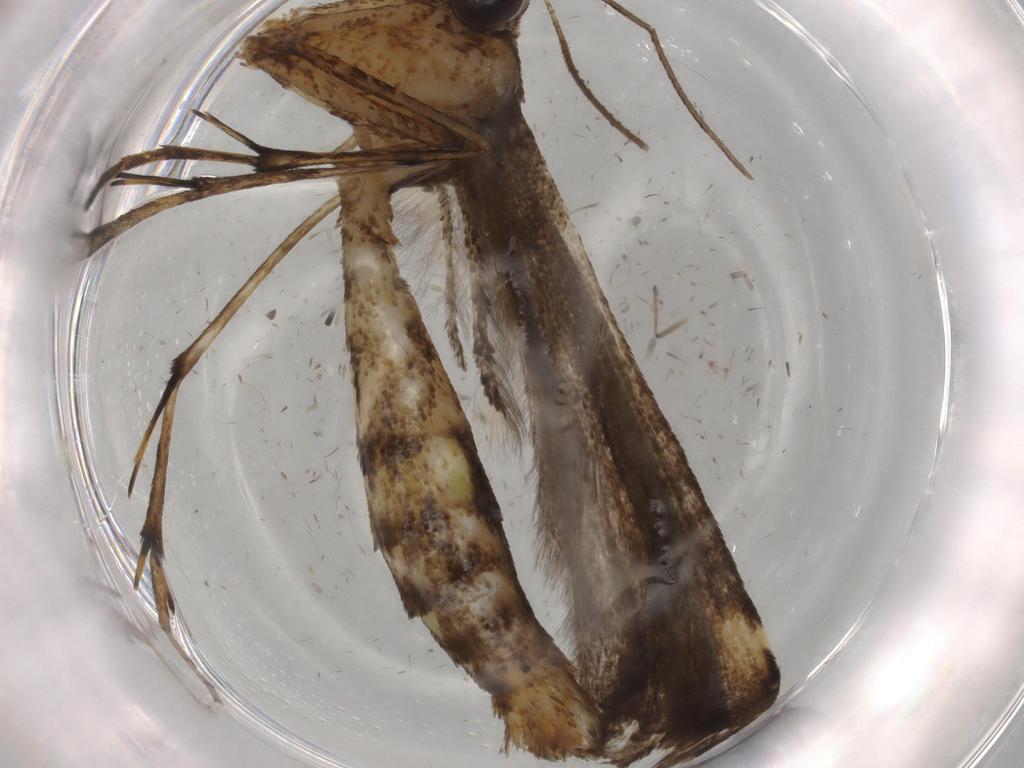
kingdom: Animalia
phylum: Arthropoda
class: Insecta
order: Lepidoptera
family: Pterophoridae
